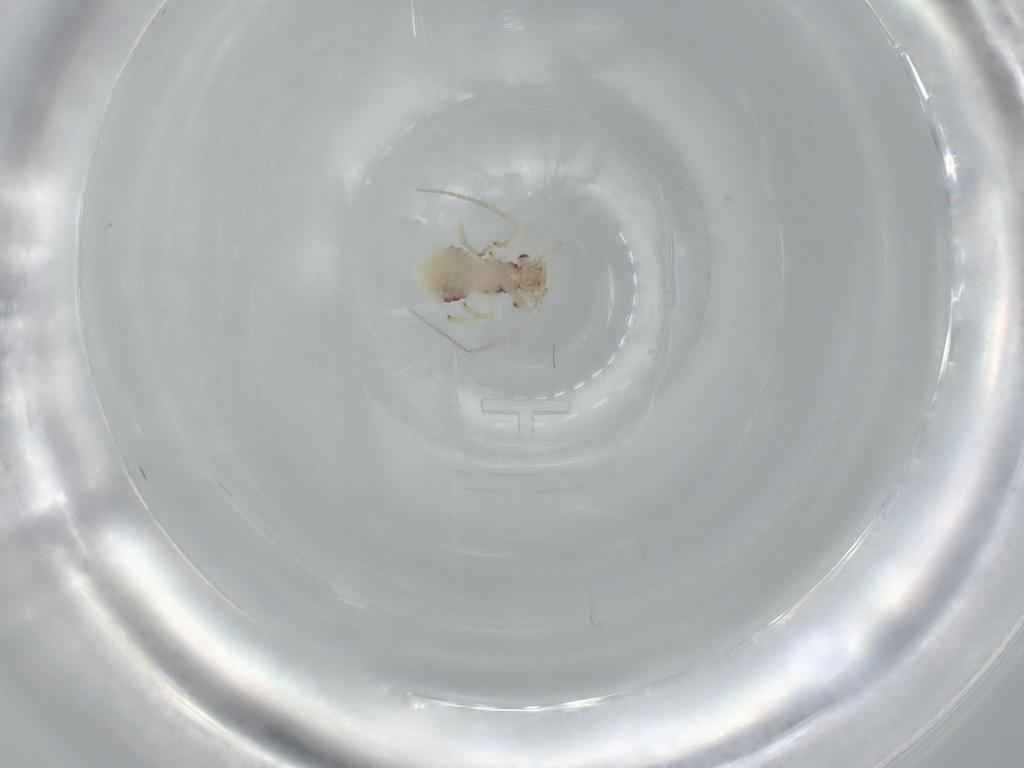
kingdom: Animalia
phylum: Arthropoda
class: Insecta
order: Psocodea
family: Caeciliusidae
